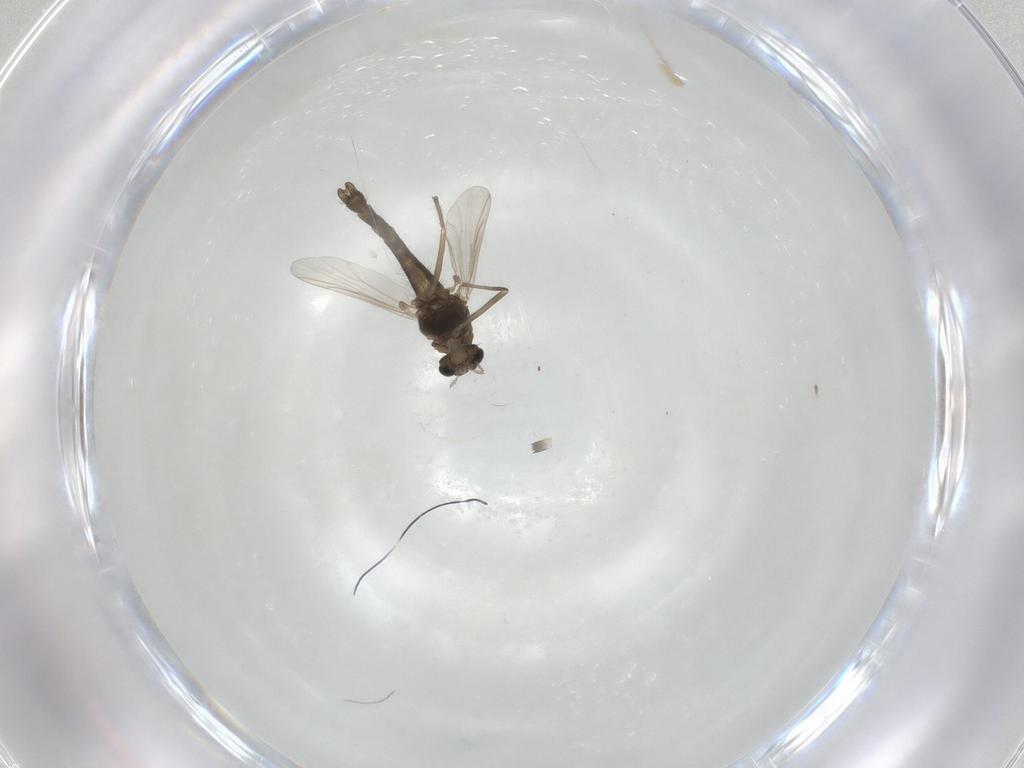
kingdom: Animalia
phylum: Arthropoda
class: Insecta
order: Diptera
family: Chironomidae
